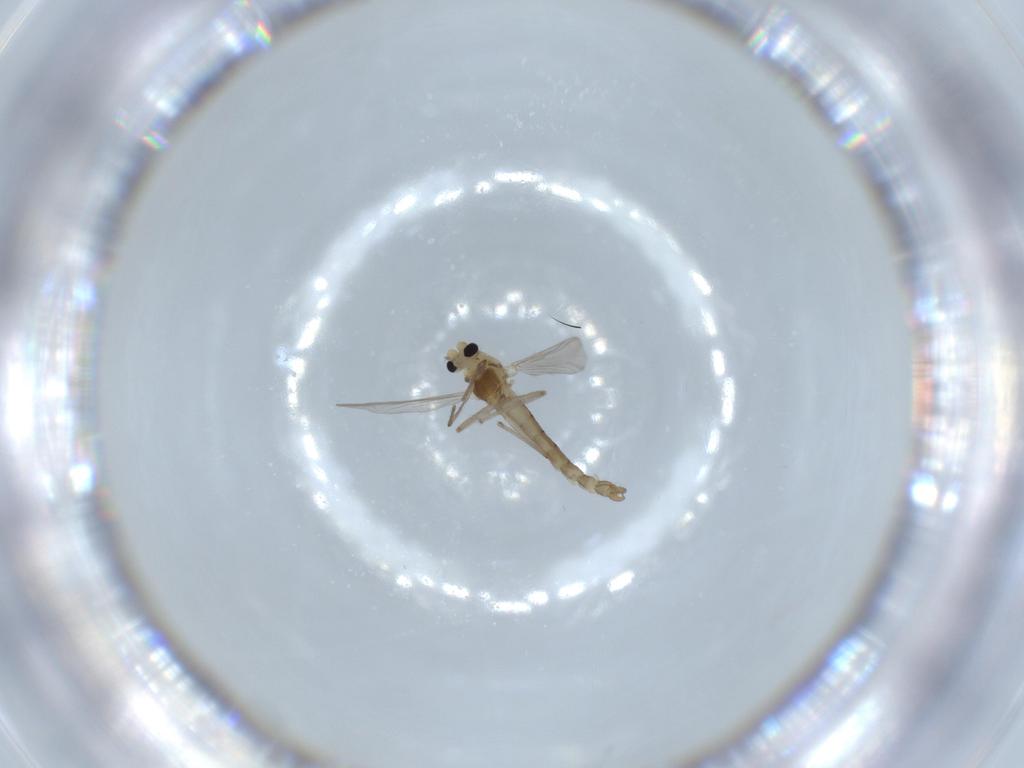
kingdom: Animalia
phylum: Arthropoda
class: Insecta
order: Diptera
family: Chironomidae
